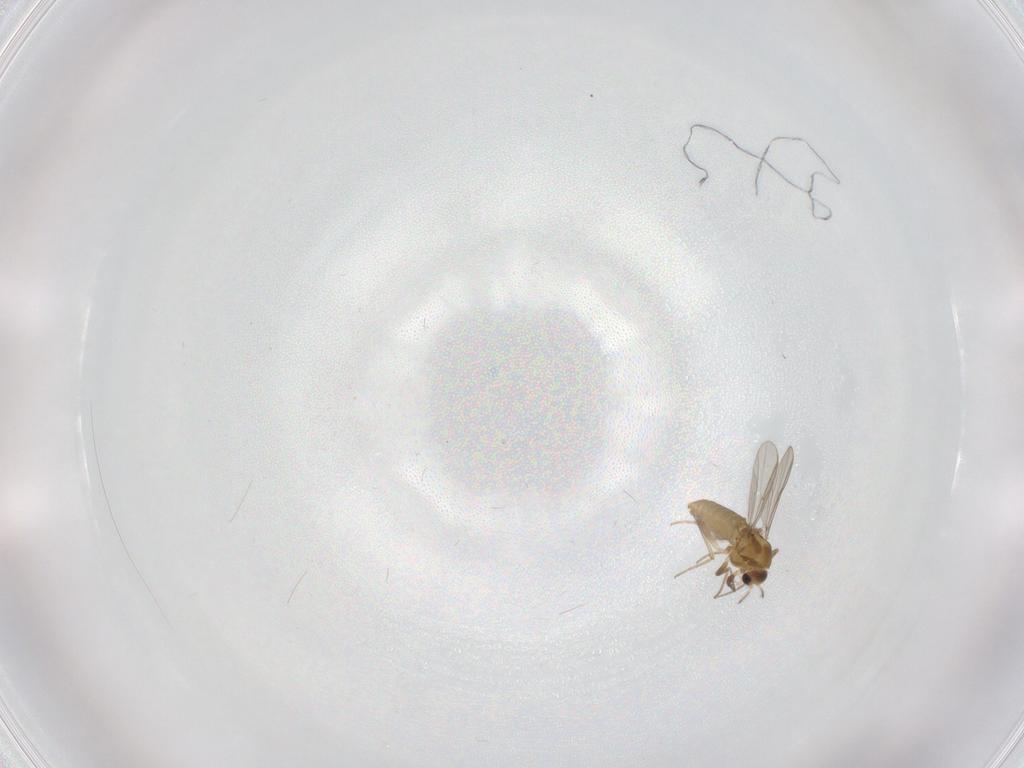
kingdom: Animalia
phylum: Arthropoda
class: Insecta
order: Diptera
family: Chironomidae
